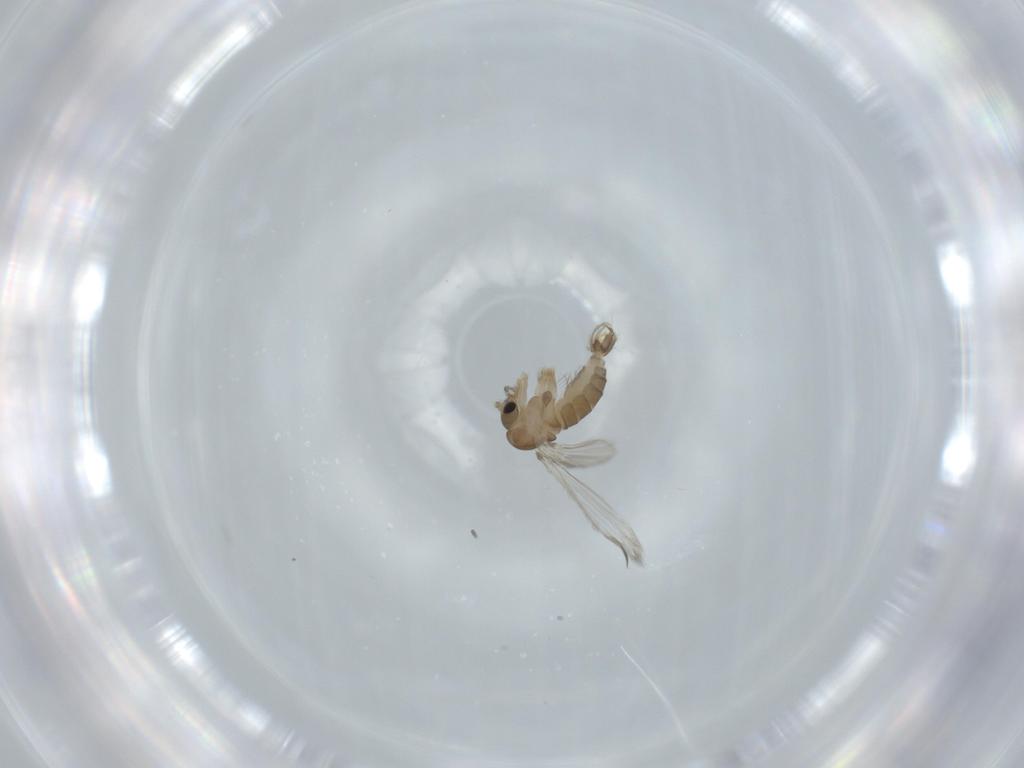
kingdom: Animalia
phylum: Arthropoda
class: Insecta
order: Diptera
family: Psychodidae
